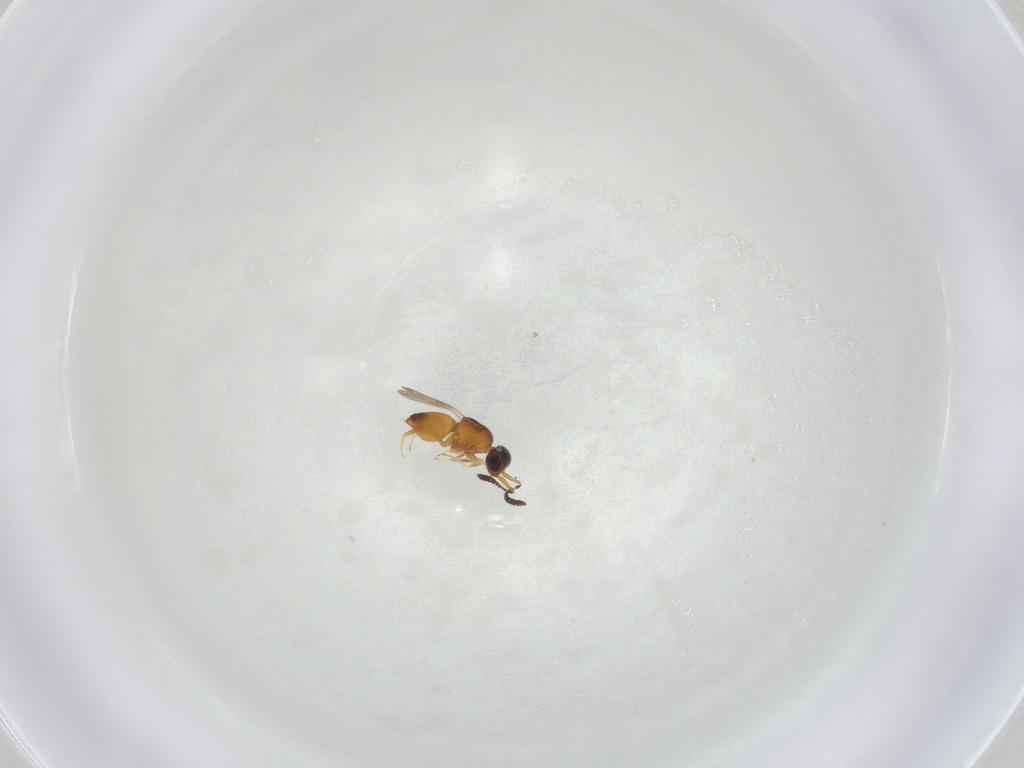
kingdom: Animalia
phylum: Arthropoda
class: Insecta
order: Hymenoptera
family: Ceraphronidae
